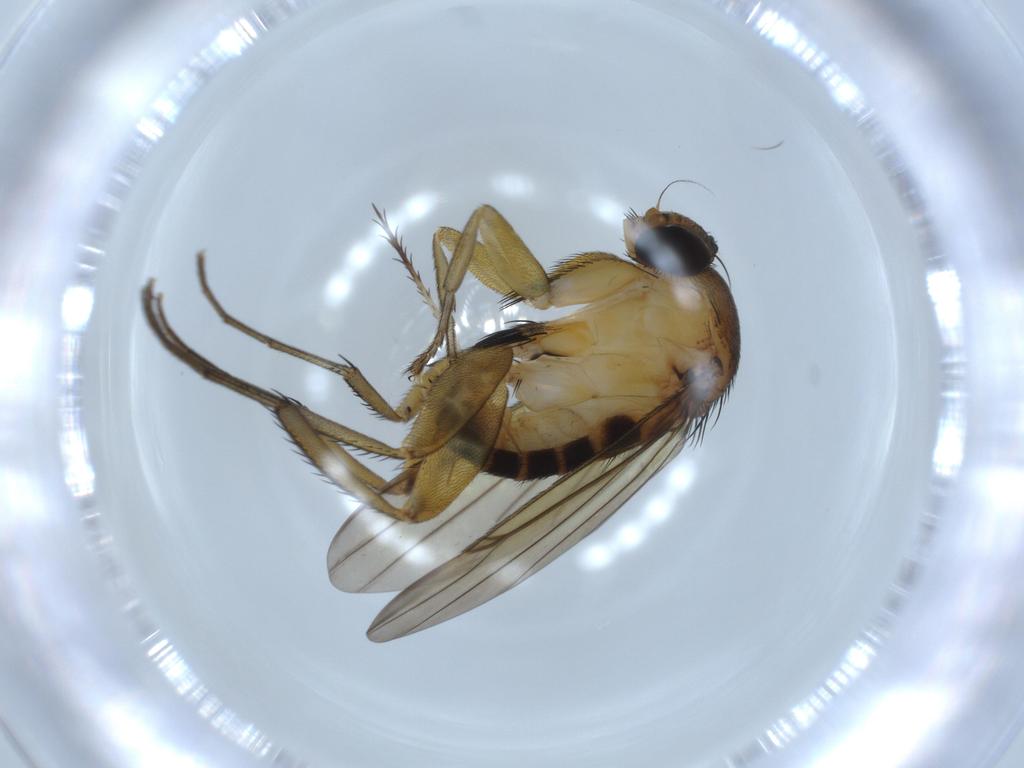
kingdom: Animalia
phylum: Arthropoda
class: Insecta
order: Diptera
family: Phoridae
